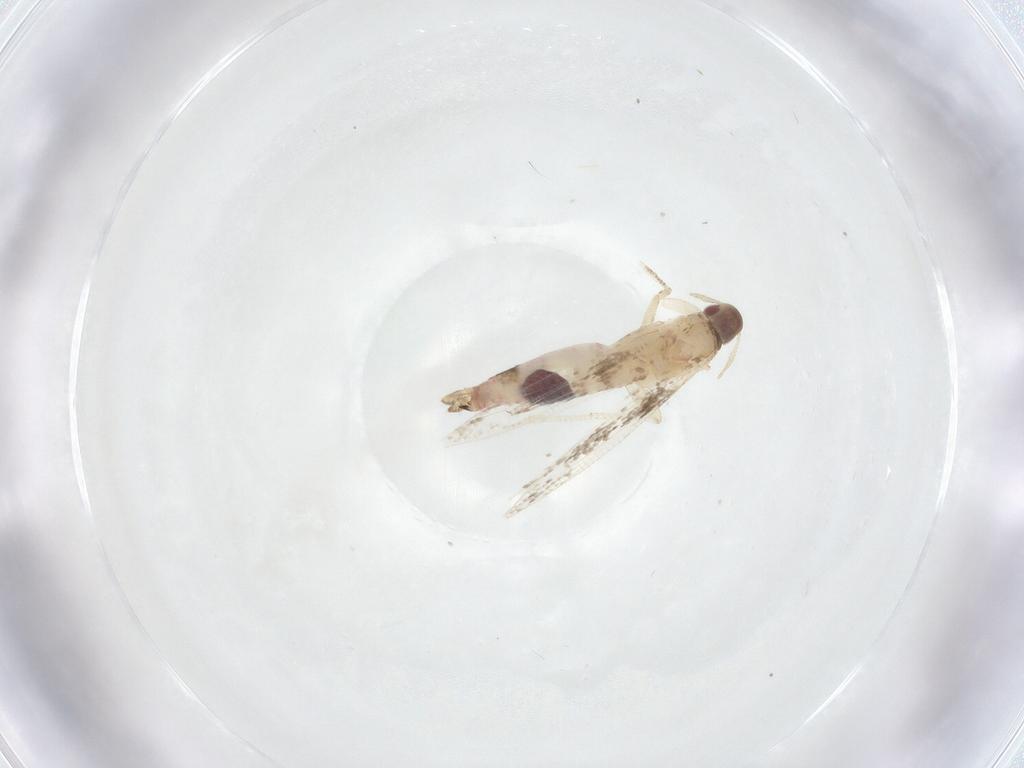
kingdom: Animalia
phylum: Arthropoda
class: Insecta
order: Lepidoptera
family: Cosmopterigidae
